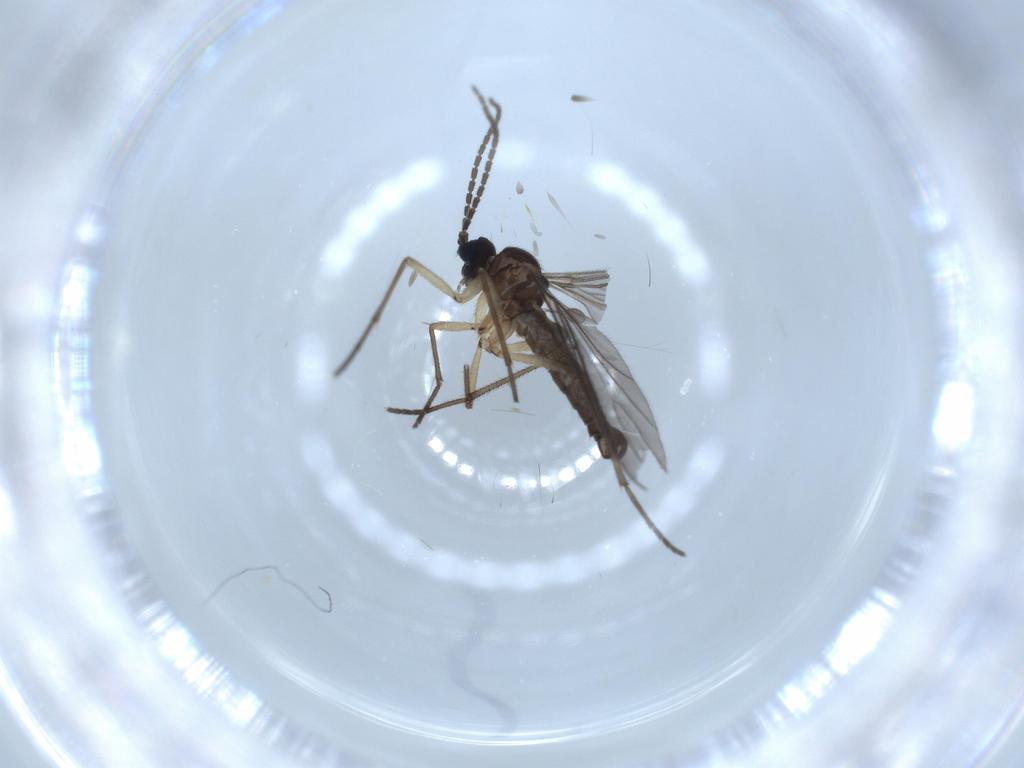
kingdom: Animalia
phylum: Arthropoda
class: Insecta
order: Diptera
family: Sciaridae
